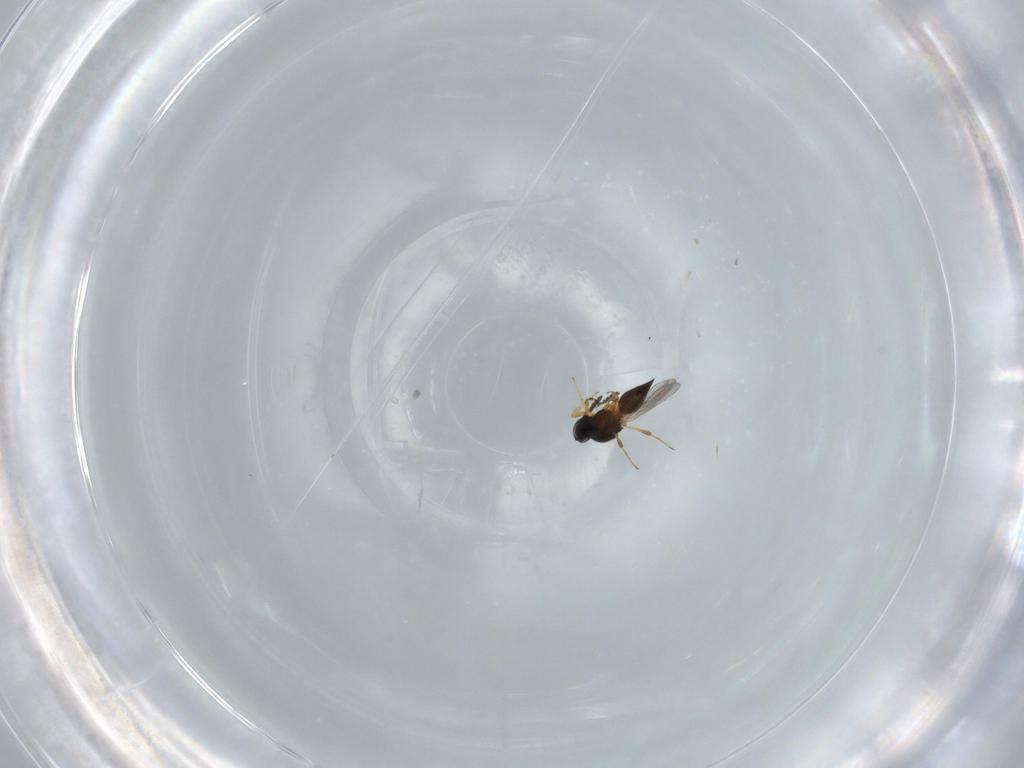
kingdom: Animalia
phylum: Arthropoda
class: Insecta
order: Hymenoptera
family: Platygastridae
